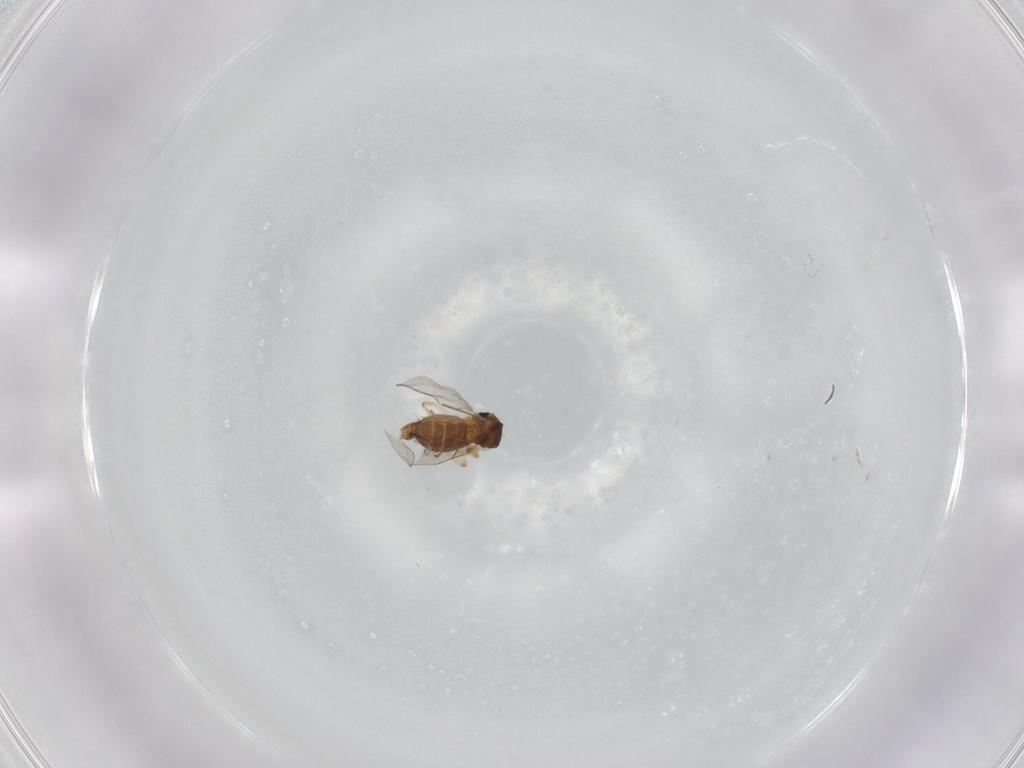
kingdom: Animalia
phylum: Arthropoda
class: Insecta
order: Diptera
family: Ceratopogonidae
